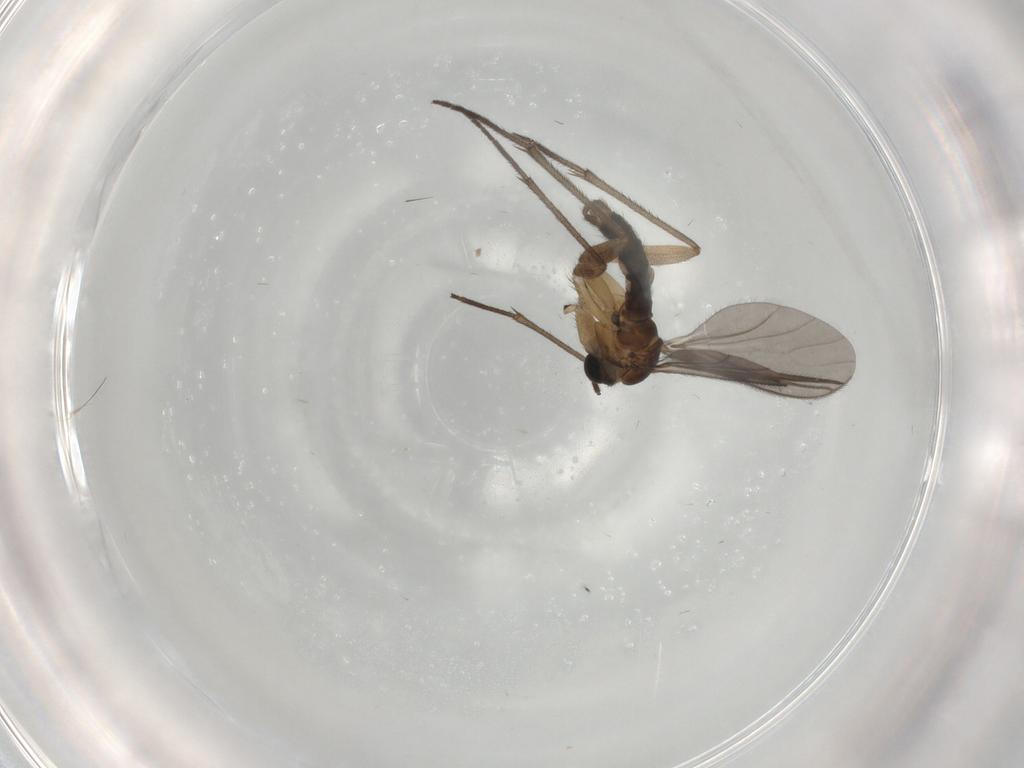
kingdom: Animalia
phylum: Arthropoda
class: Insecta
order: Diptera
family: Sciaridae
